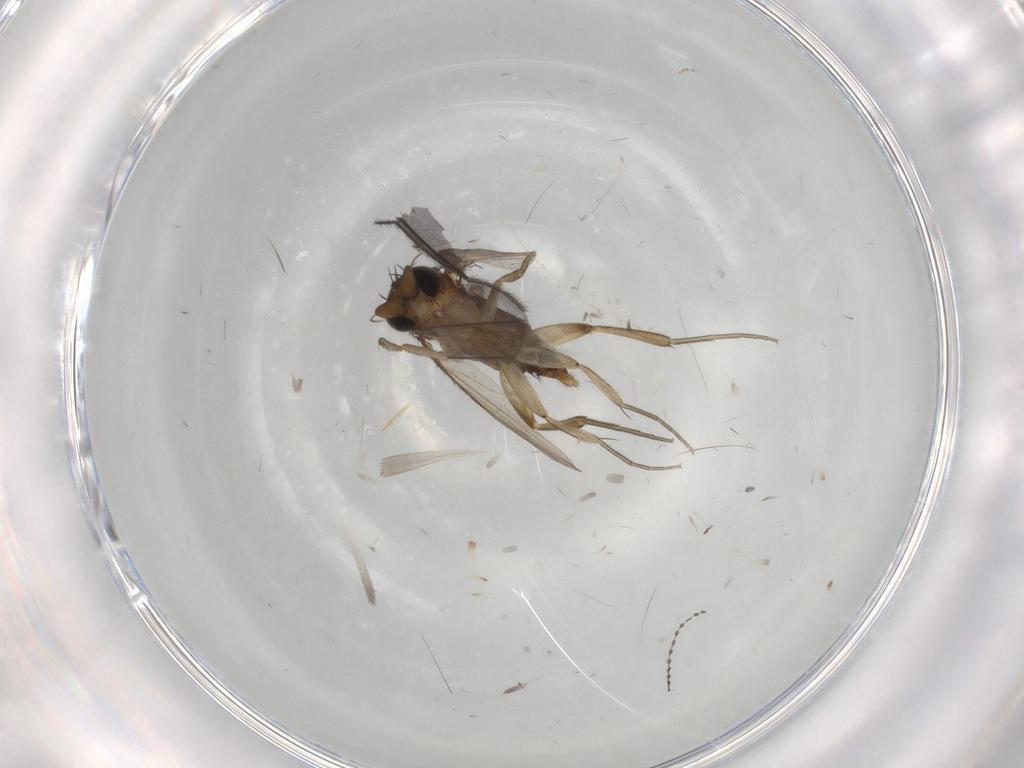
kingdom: Animalia
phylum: Arthropoda
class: Insecta
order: Diptera
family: Phoridae
